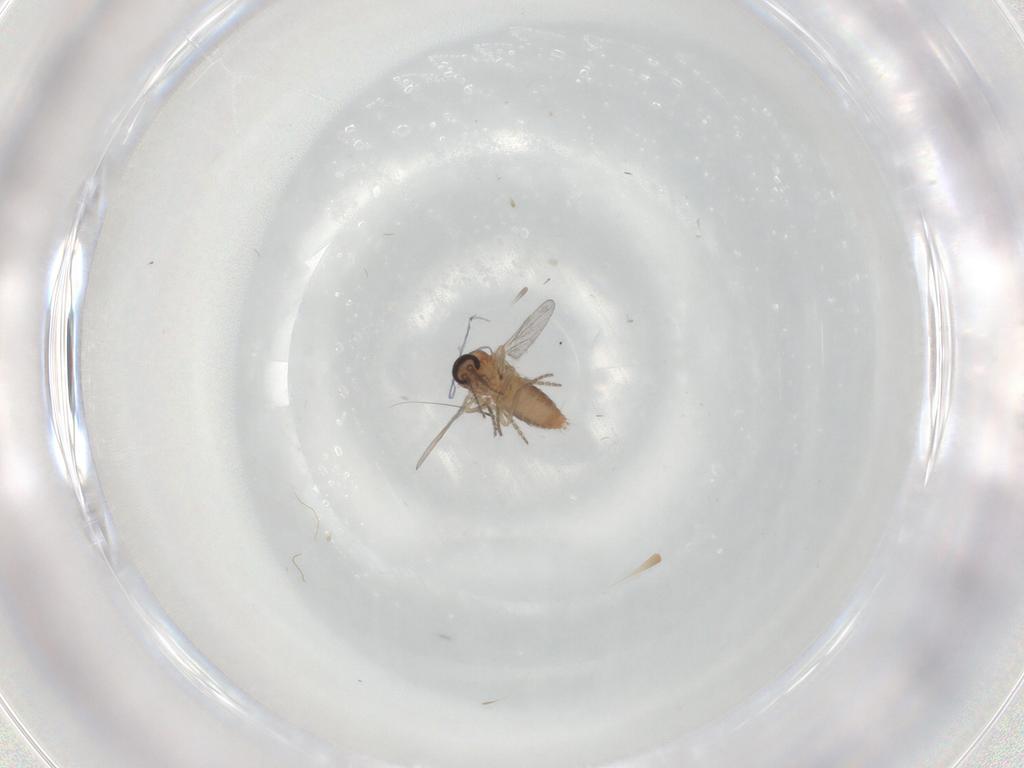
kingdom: Animalia
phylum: Arthropoda
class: Insecta
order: Diptera
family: Ceratopogonidae
